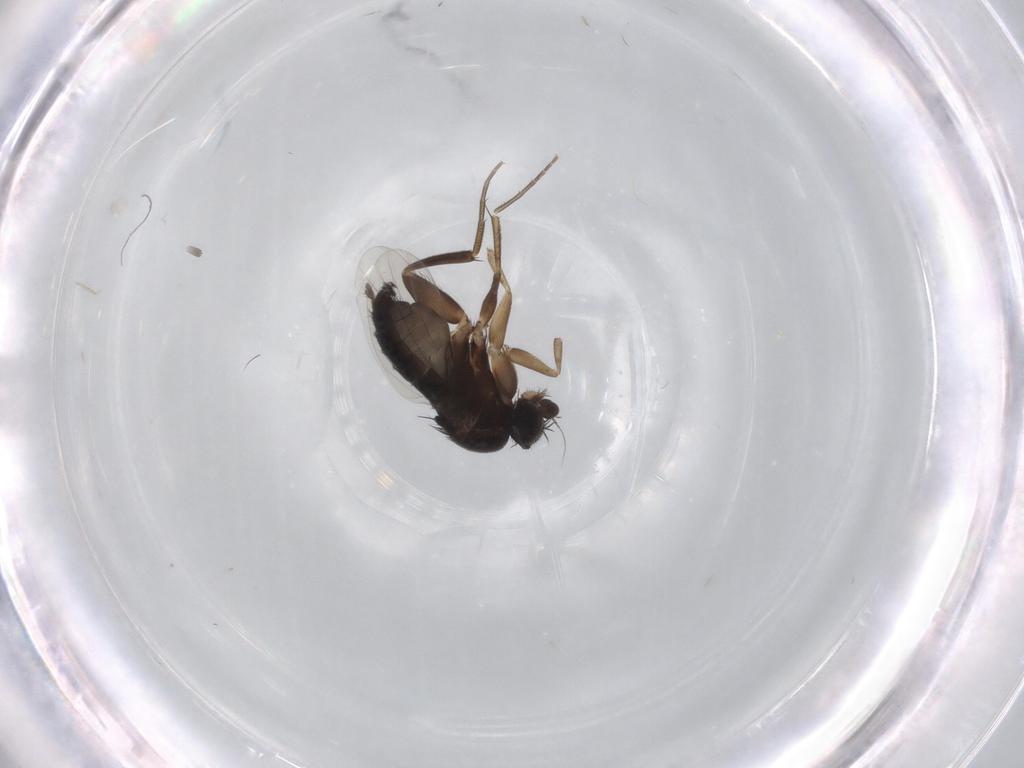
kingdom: Animalia
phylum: Arthropoda
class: Insecta
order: Diptera
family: Phoridae
